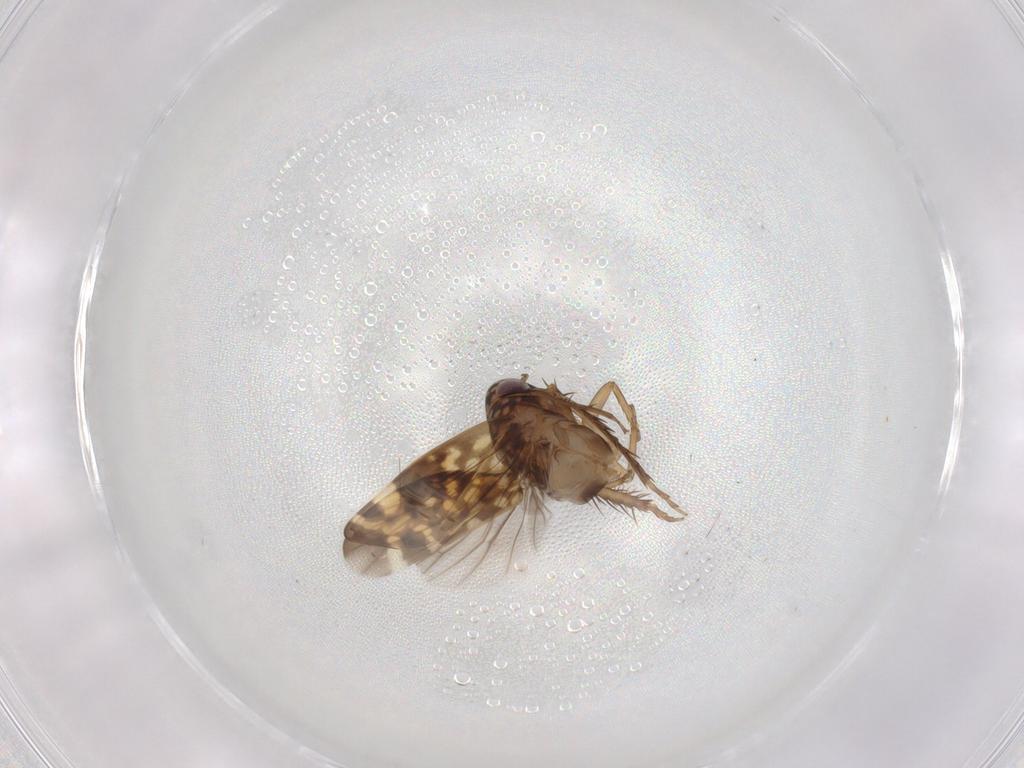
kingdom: Animalia
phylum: Arthropoda
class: Insecta
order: Hemiptera
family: Cicadellidae
